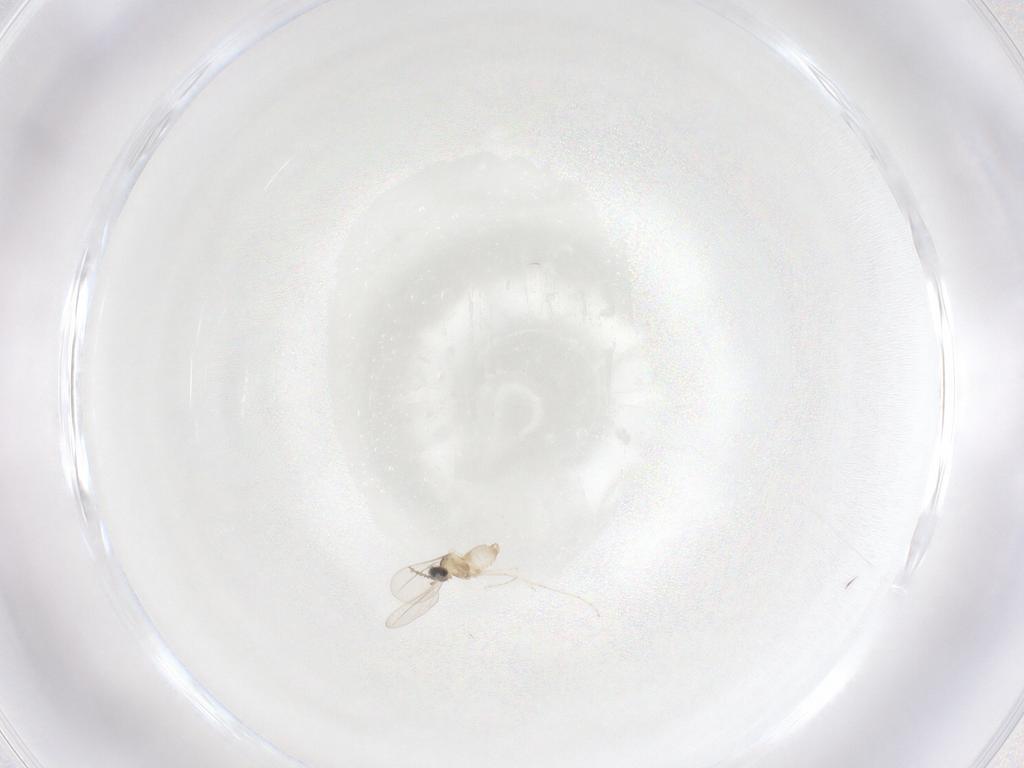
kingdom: Animalia
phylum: Arthropoda
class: Insecta
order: Diptera
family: Cecidomyiidae
